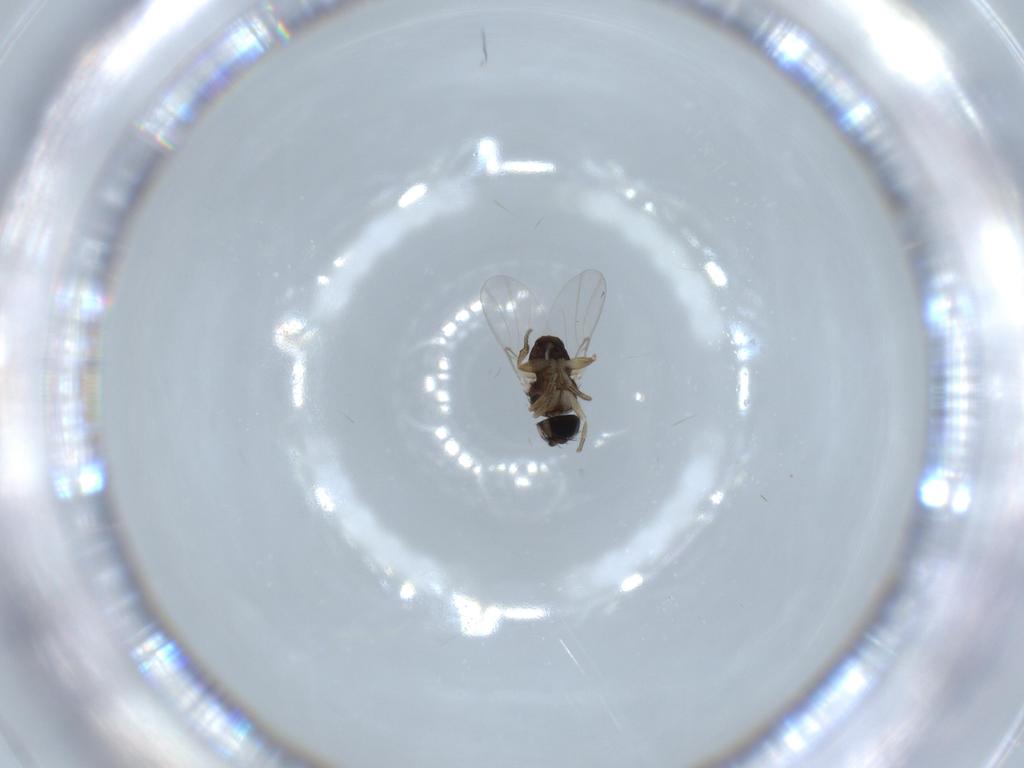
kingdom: Animalia
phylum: Arthropoda
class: Insecta
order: Diptera
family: Phoridae
